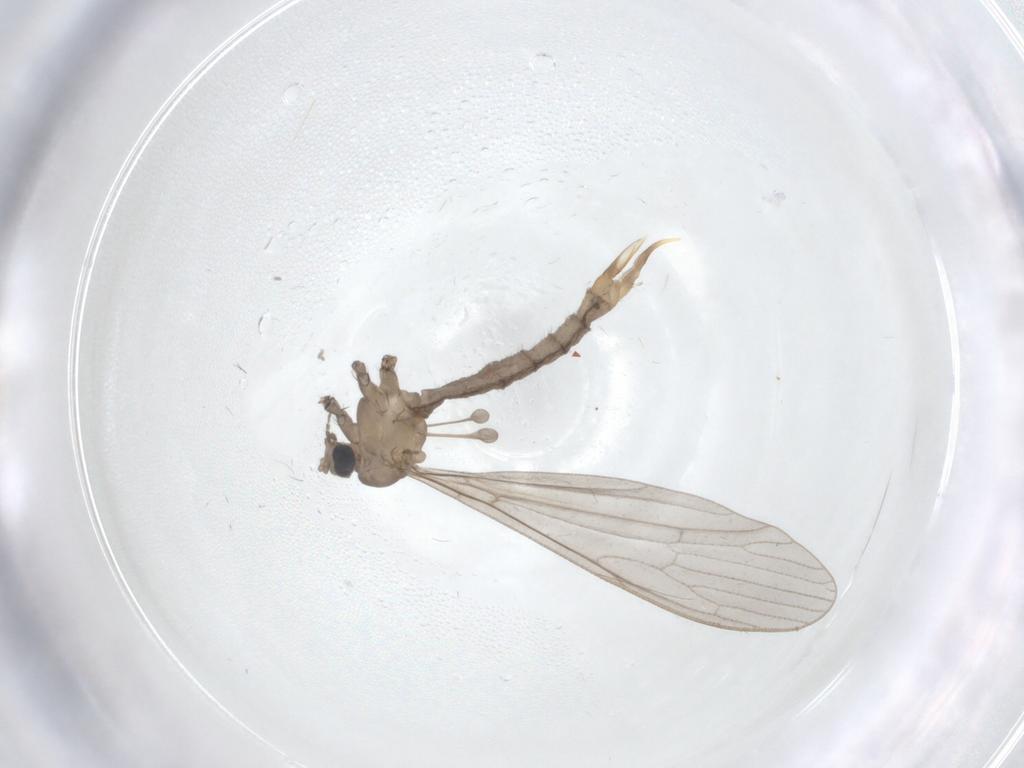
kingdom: Animalia
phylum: Arthropoda
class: Insecta
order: Diptera
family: Limoniidae
